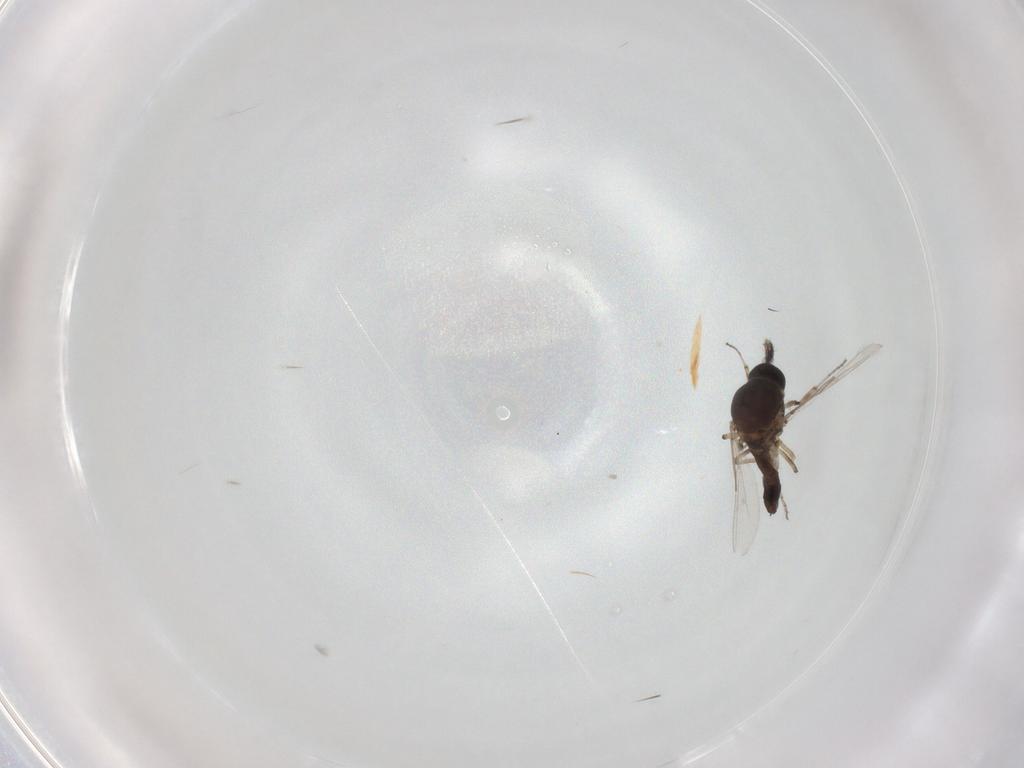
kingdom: Animalia
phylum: Arthropoda
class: Insecta
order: Diptera
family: Ceratopogonidae
